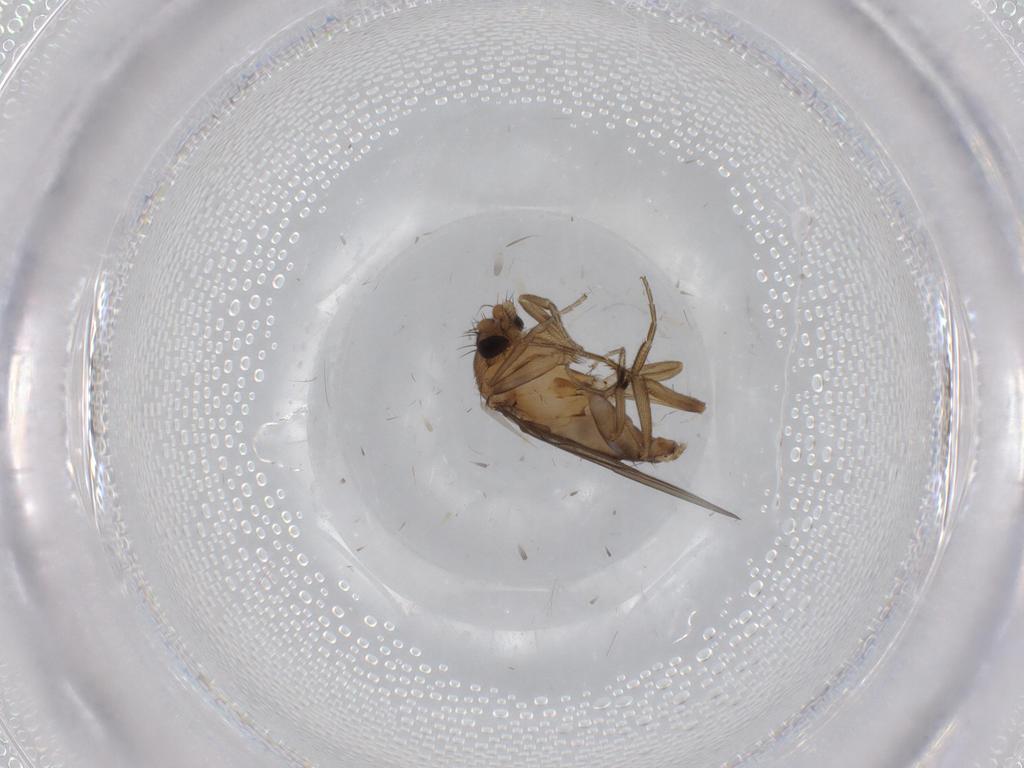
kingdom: Animalia
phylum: Arthropoda
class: Insecta
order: Diptera
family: Phoridae
